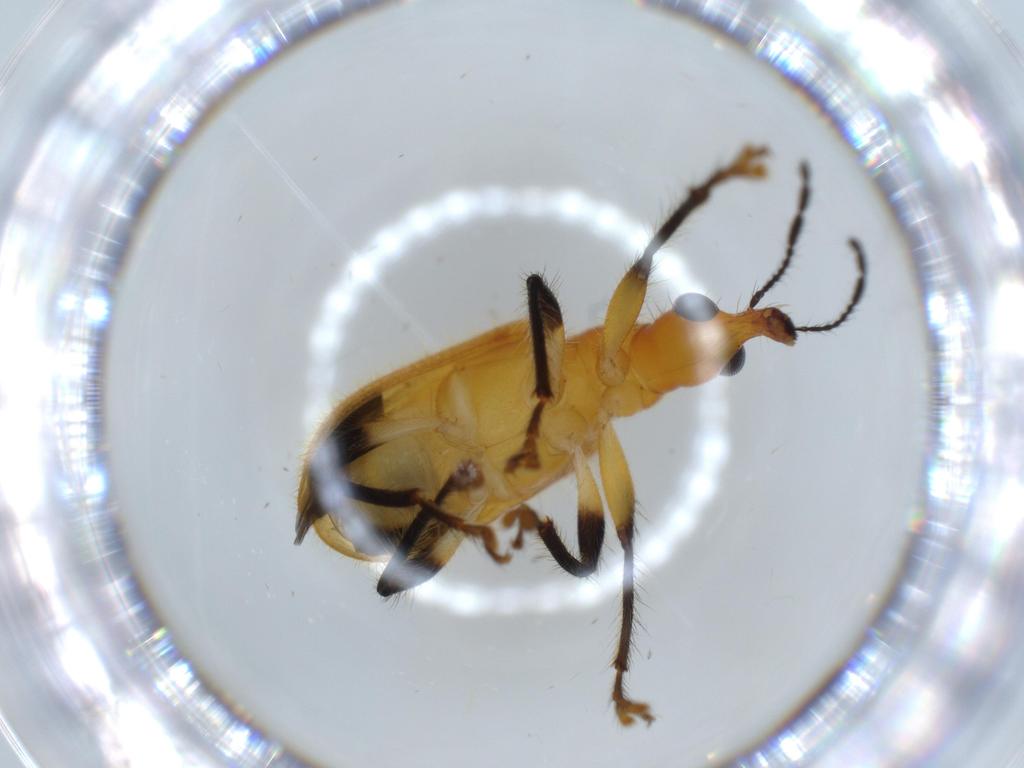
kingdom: Animalia
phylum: Arthropoda
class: Insecta
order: Coleoptera
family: Attelabidae
